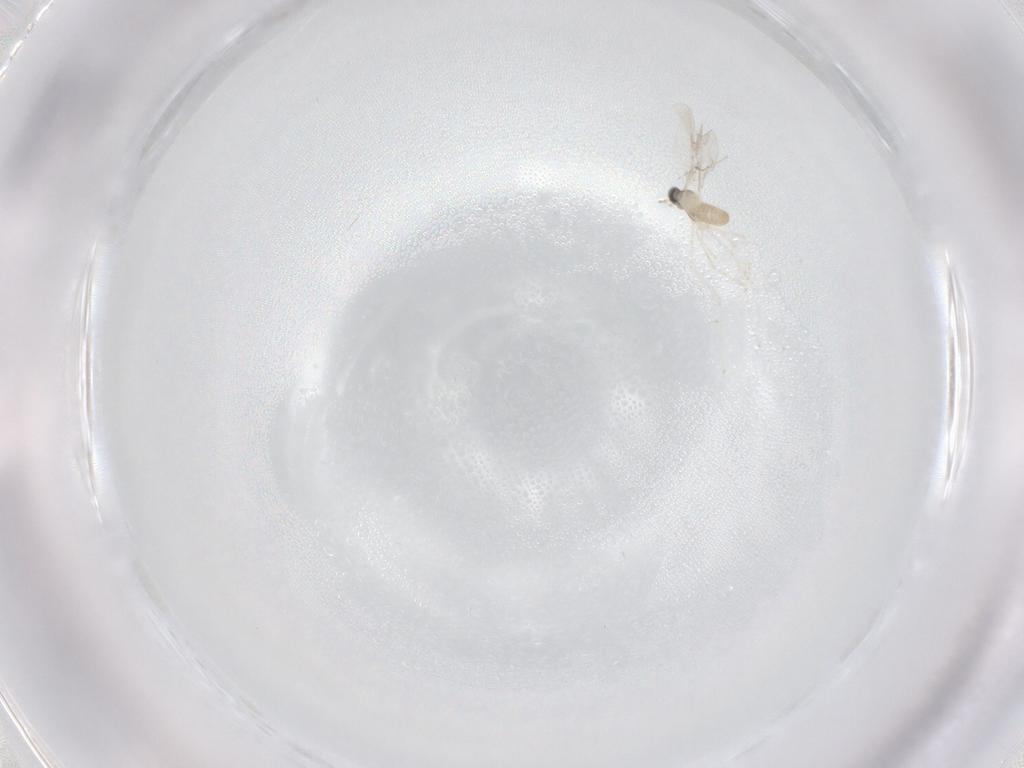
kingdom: Animalia
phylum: Arthropoda
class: Insecta
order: Diptera
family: Cecidomyiidae
